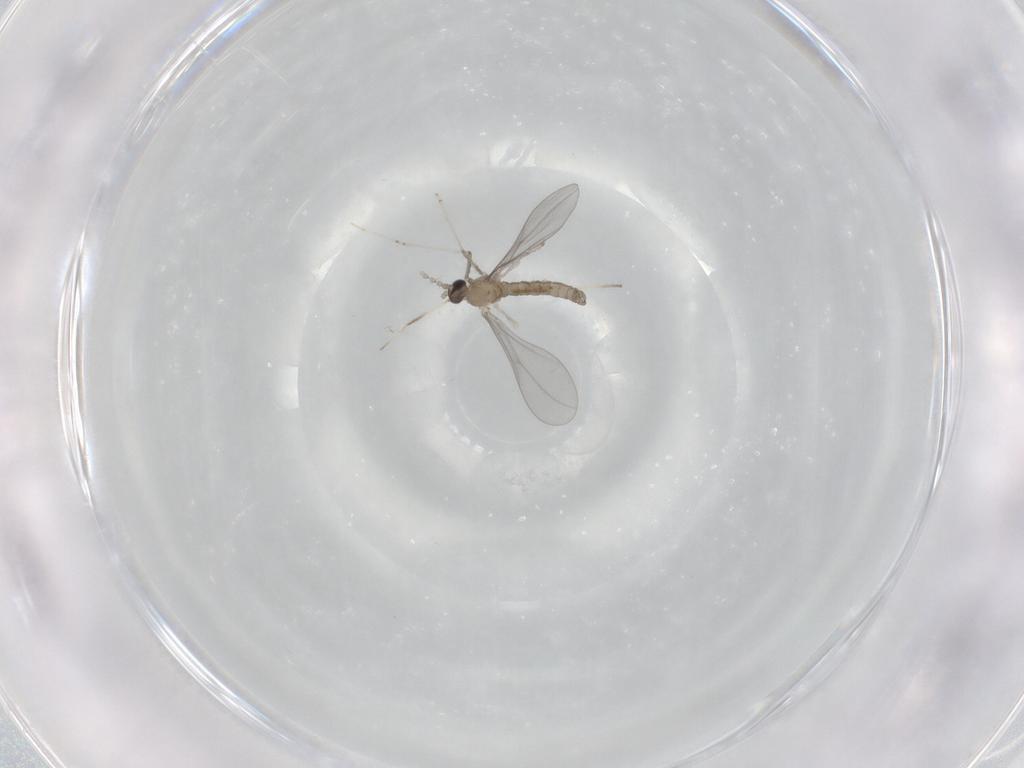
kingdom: Animalia
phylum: Arthropoda
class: Insecta
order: Diptera
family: Cecidomyiidae
